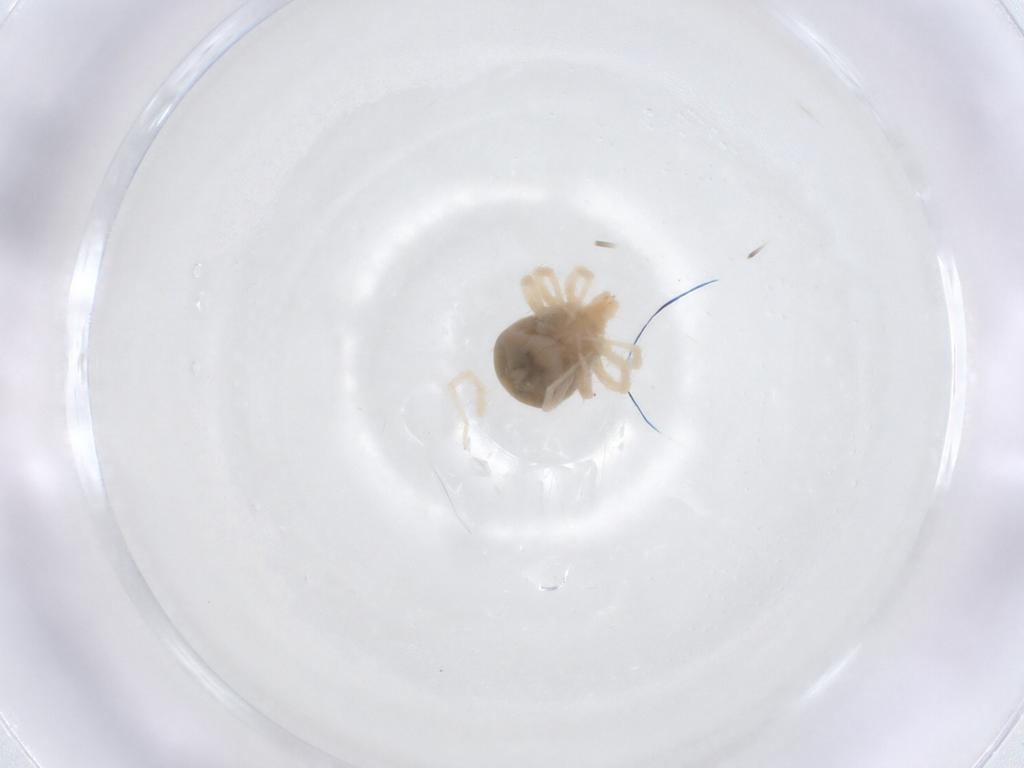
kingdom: Animalia
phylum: Arthropoda
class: Arachnida
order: Trombidiformes
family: Anystidae
